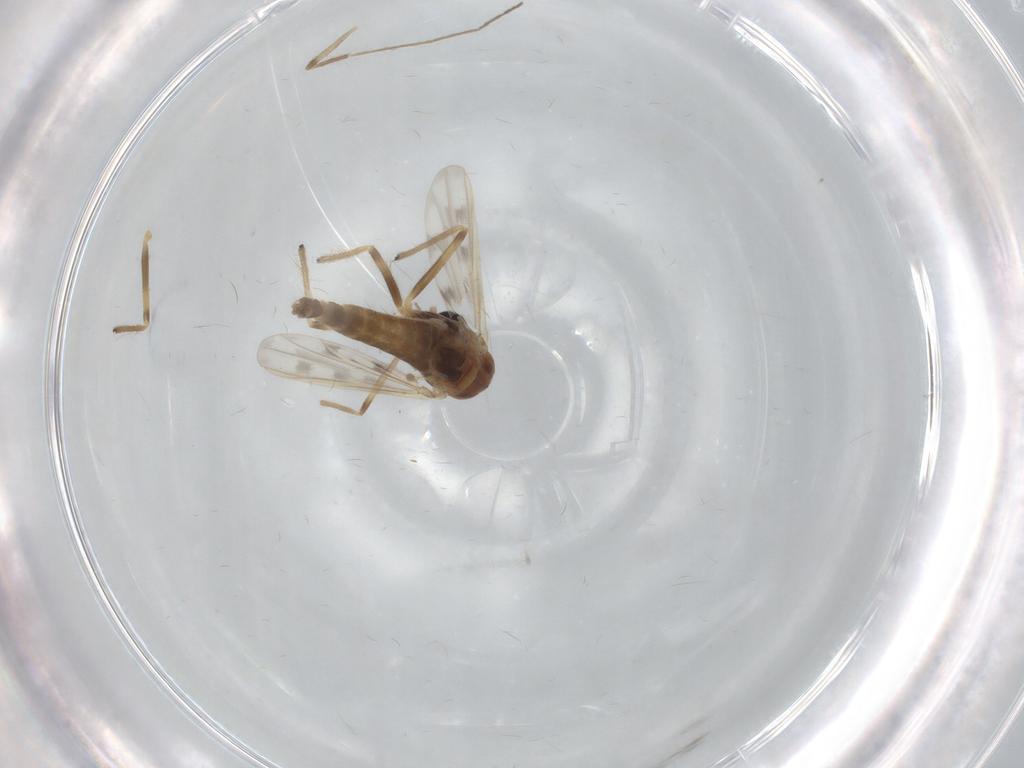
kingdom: Animalia
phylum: Arthropoda
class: Insecta
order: Diptera
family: Chironomidae
